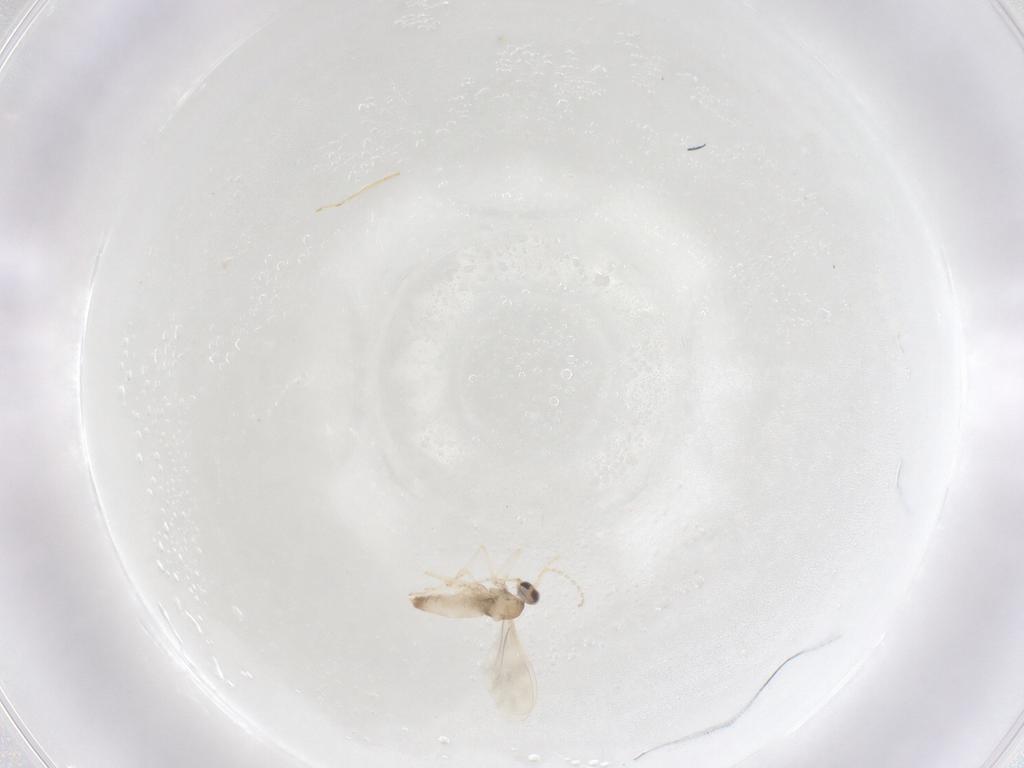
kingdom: Animalia
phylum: Arthropoda
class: Insecta
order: Diptera
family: Cecidomyiidae
